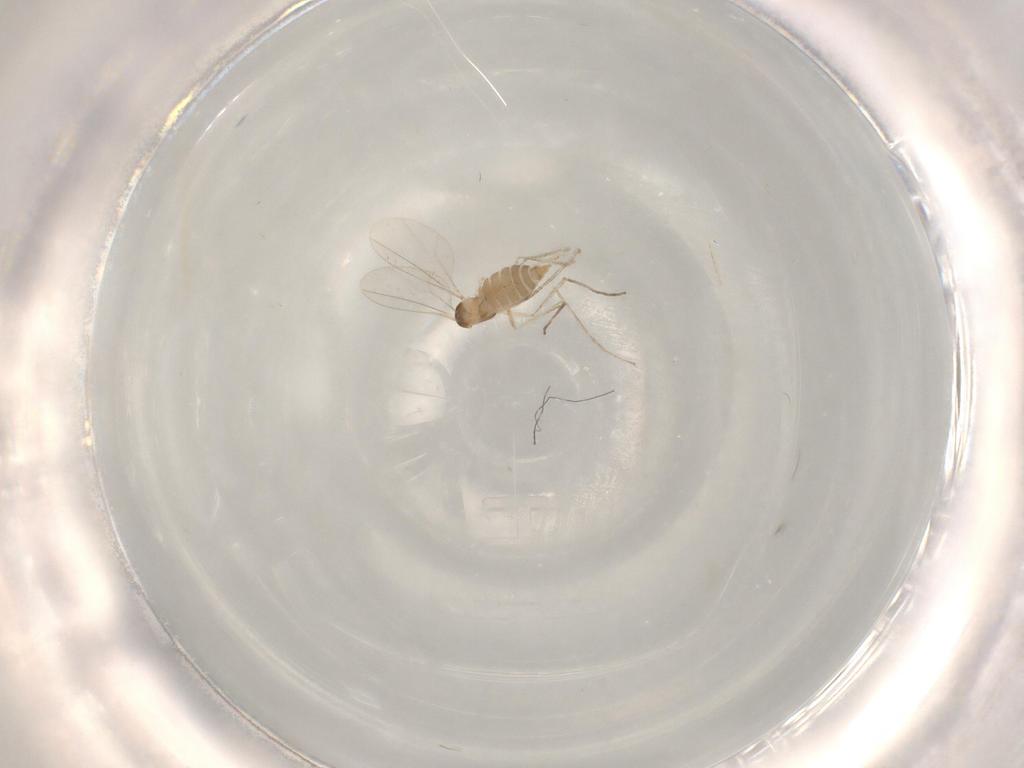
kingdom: Animalia
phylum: Arthropoda
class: Insecta
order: Diptera
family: Cecidomyiidae
